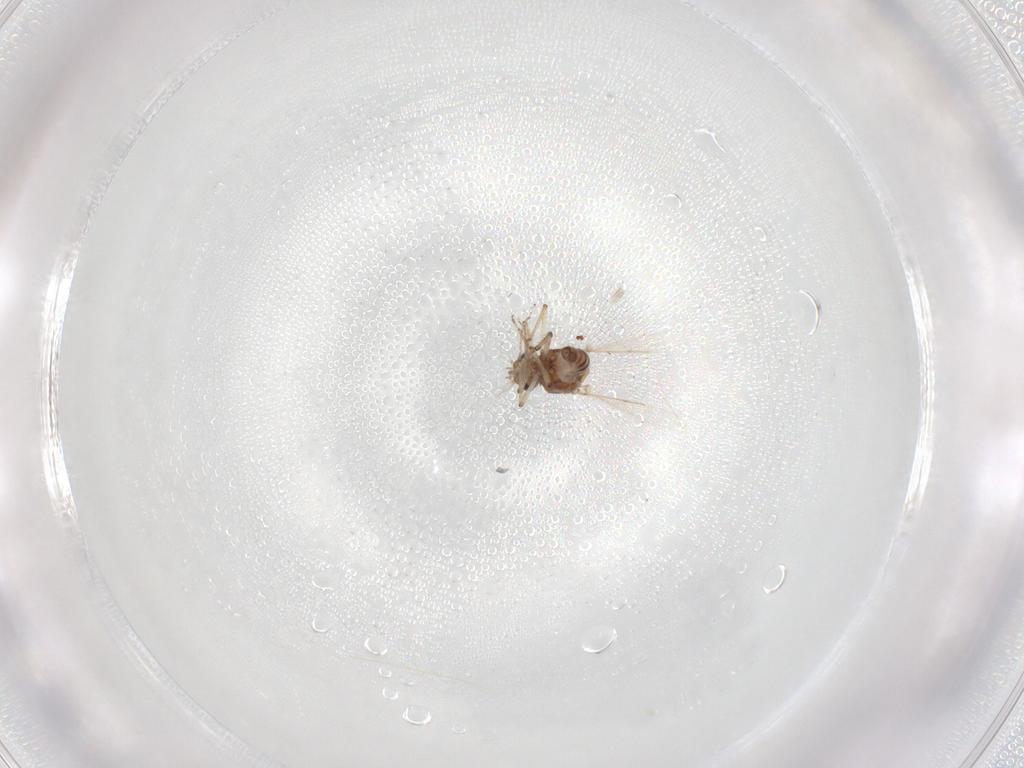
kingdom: Animalia
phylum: Arthropoda
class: Insecta
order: Diptera
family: Ceratopogonidae
